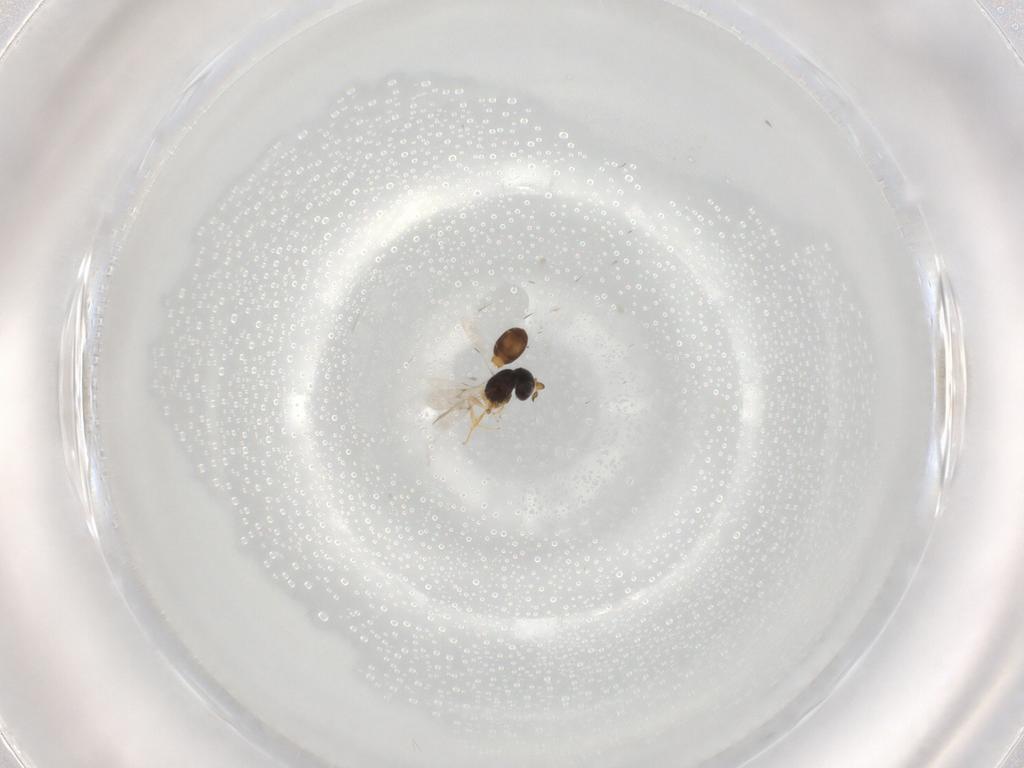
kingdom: Animalia
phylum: Arthropoda
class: Insecta
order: Hymenoptera
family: Scelionidae
